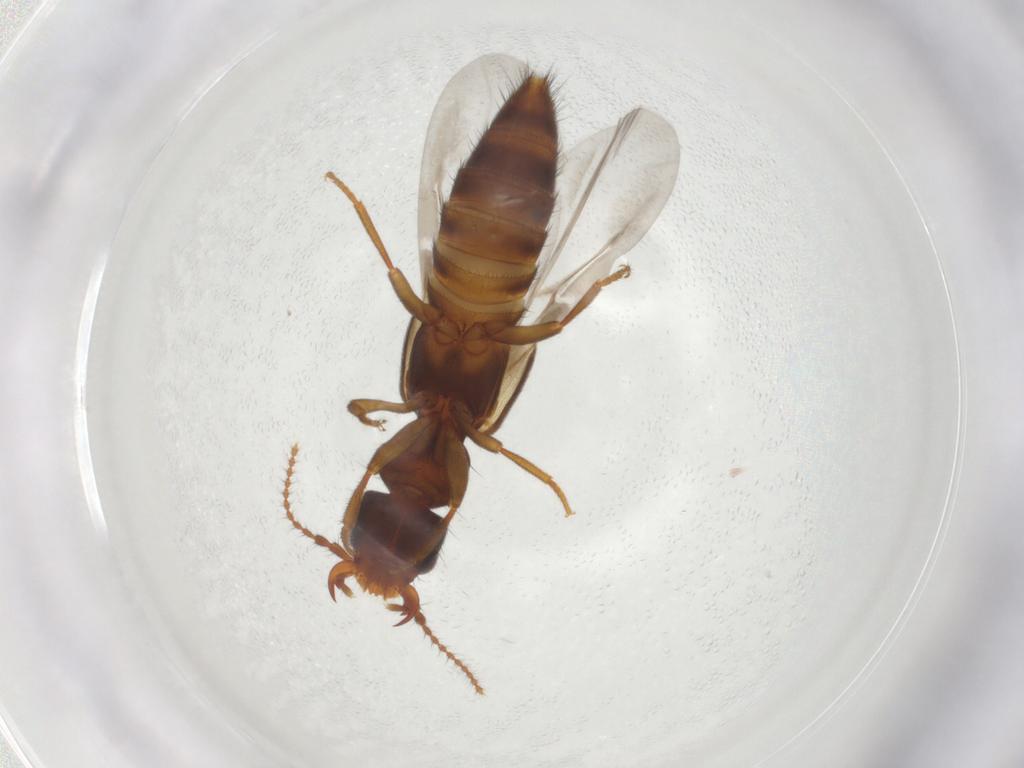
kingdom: Animalia
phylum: Arthropoda
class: Insecta
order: Coleoptera
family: Staphylinidae
